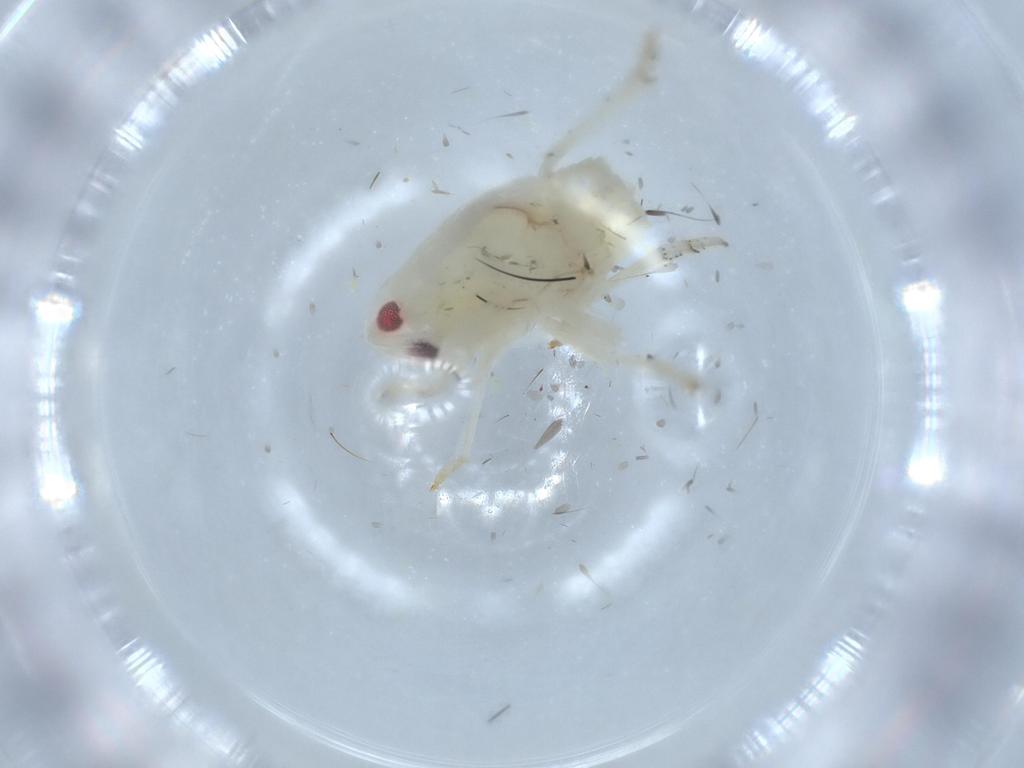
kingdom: Animalia
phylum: Arthropoda
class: Insecta
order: Hemiptera
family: Flatidae
